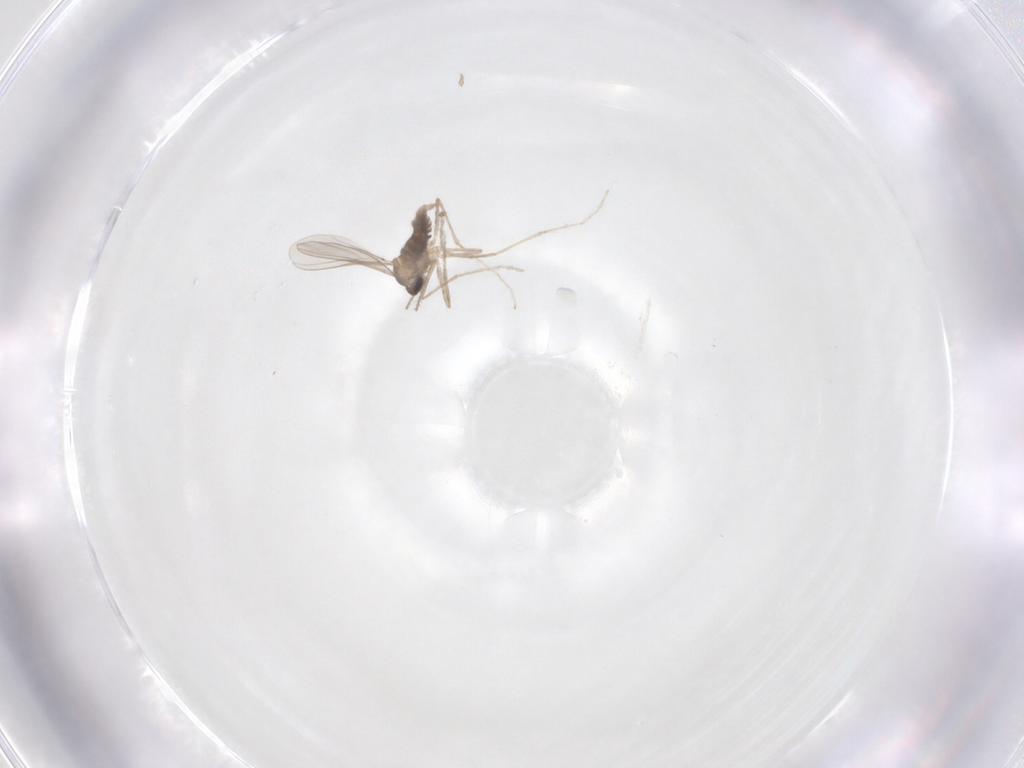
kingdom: Animalia
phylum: Arthropoda
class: Insecta
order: Diptera
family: Cecidomyiidae
